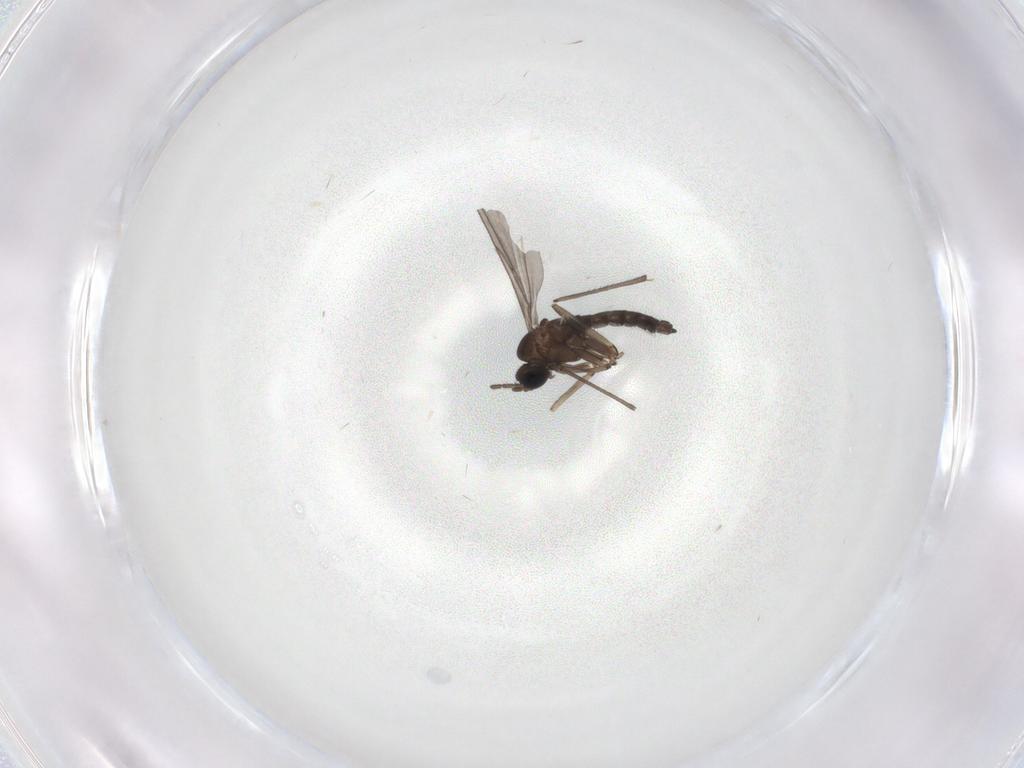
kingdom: Animalia
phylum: Arthropoda
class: Insecta
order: Diptera
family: Sciaridae
